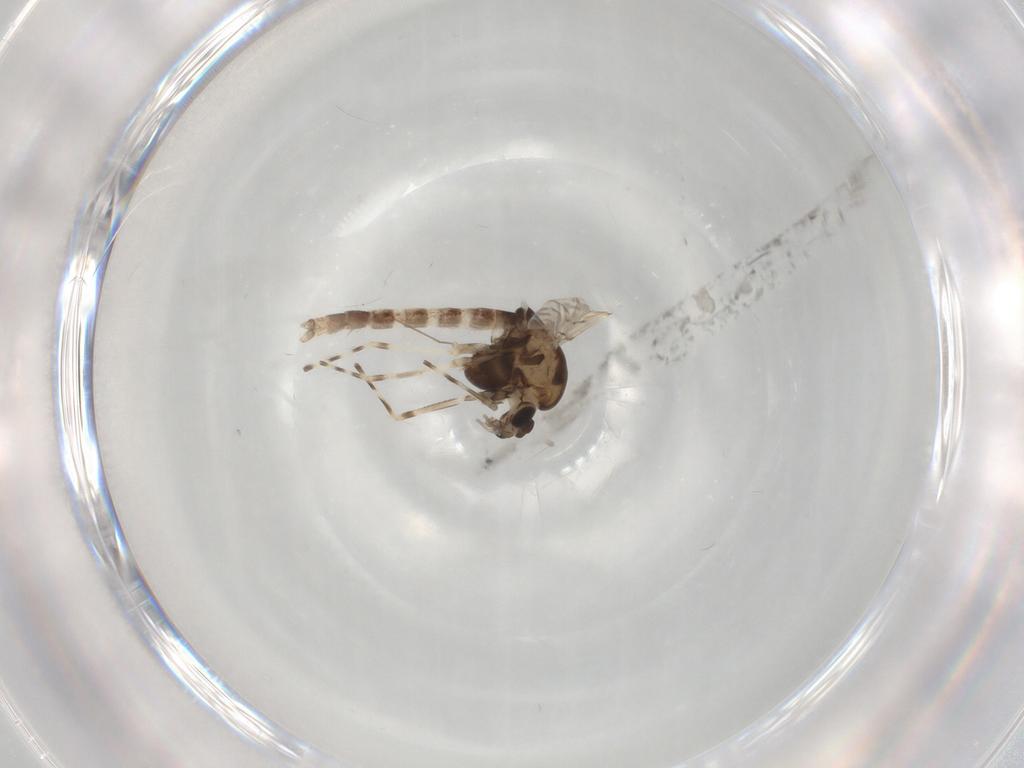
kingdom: Animalia
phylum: Arthropoda
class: Insecta
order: Diptera
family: Chironomidae
